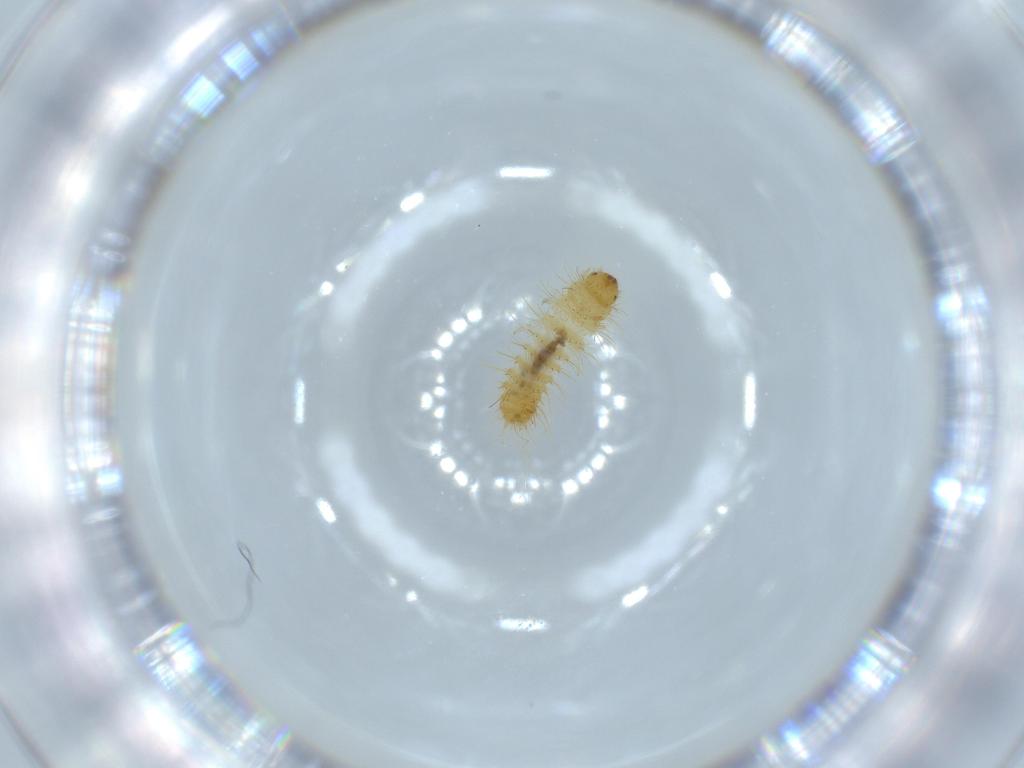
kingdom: Animalia
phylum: Arthropoda
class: Insecta
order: Coleoptera
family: Dermestidae
